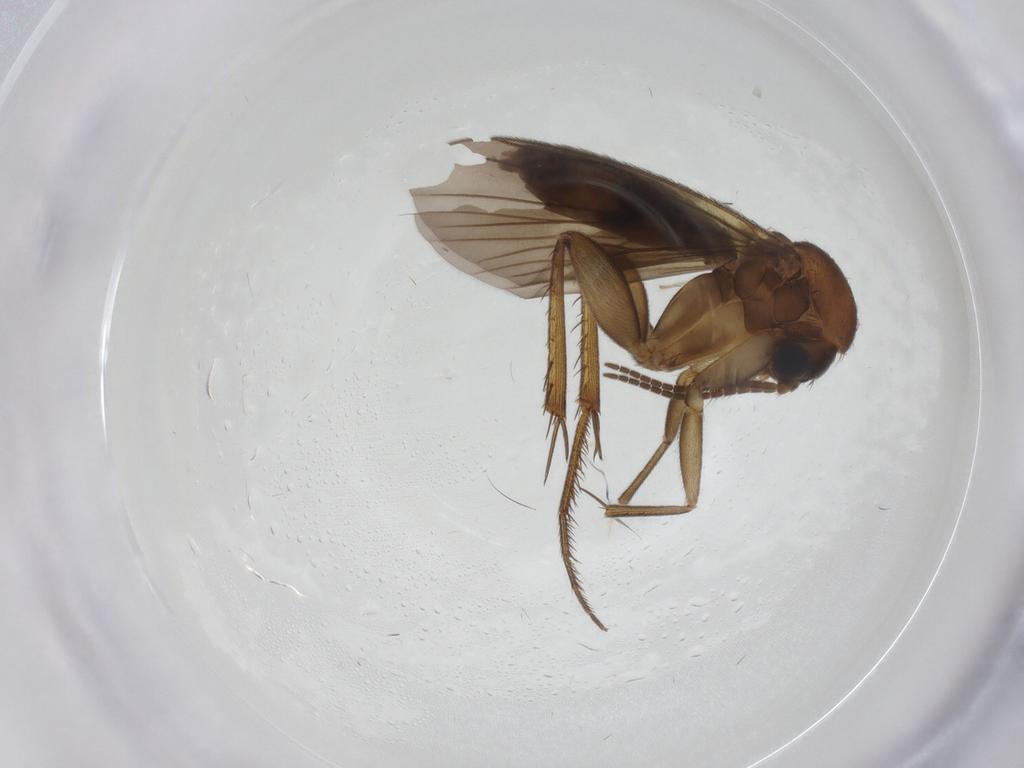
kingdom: Animalia
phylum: Arthropoda
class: Insecta
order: Diptera
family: Mycetophilidae
